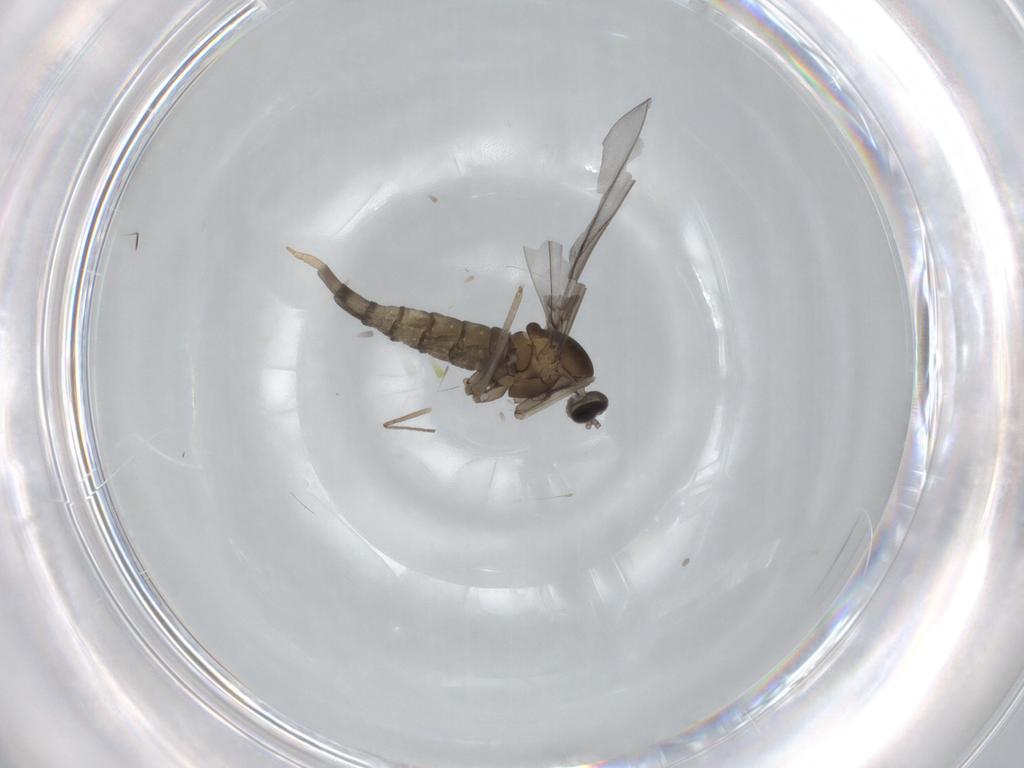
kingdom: Animalia
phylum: Arthropoda
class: Insecta
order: Diptera
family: Cecidomyiidae
